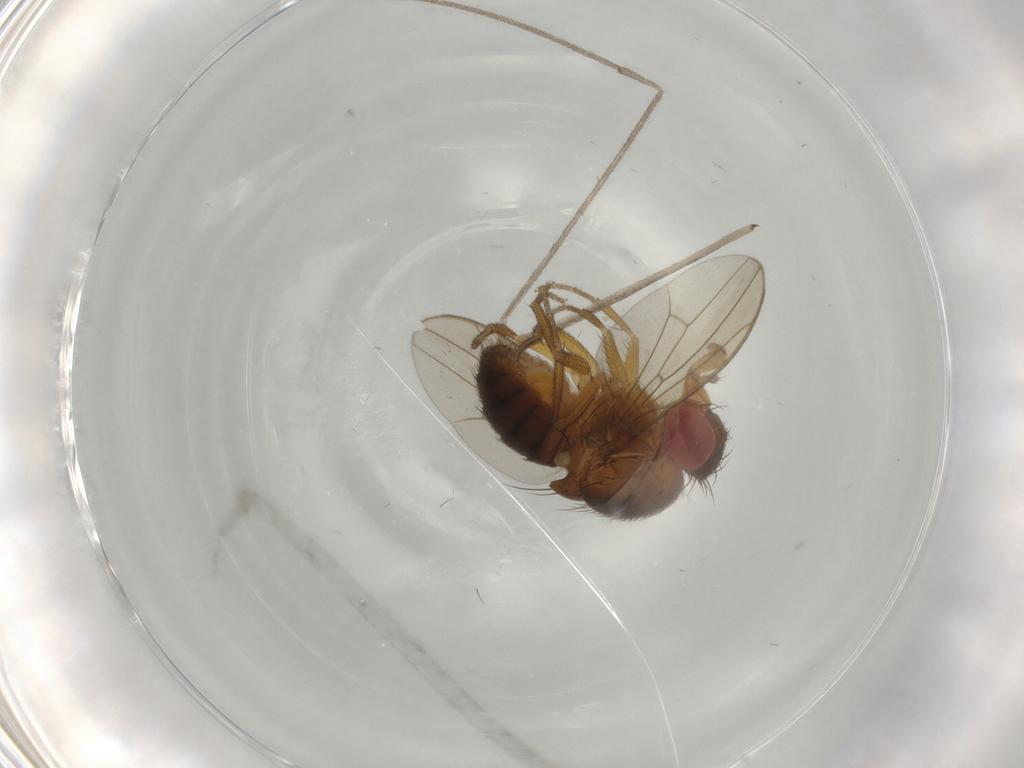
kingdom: Animalia
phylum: Arthropoda
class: Insecta
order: Diptera
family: Drosophilidae
